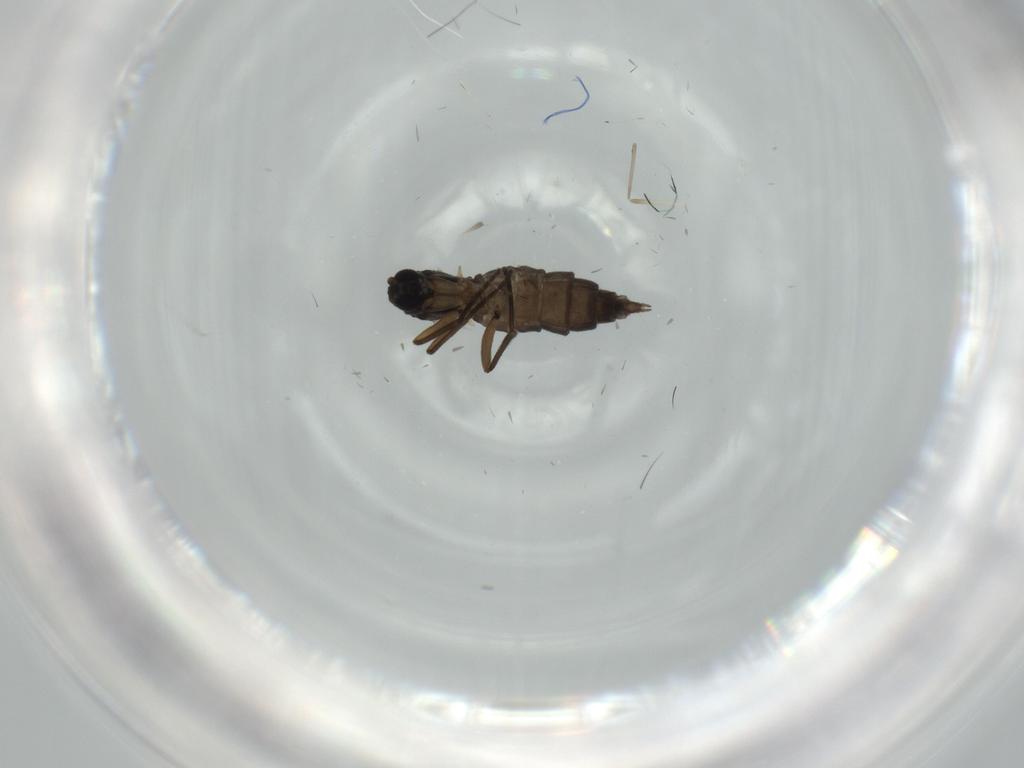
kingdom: Animalia
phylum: Arthropoda
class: Insecta
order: Diptera
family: Sciaridae
